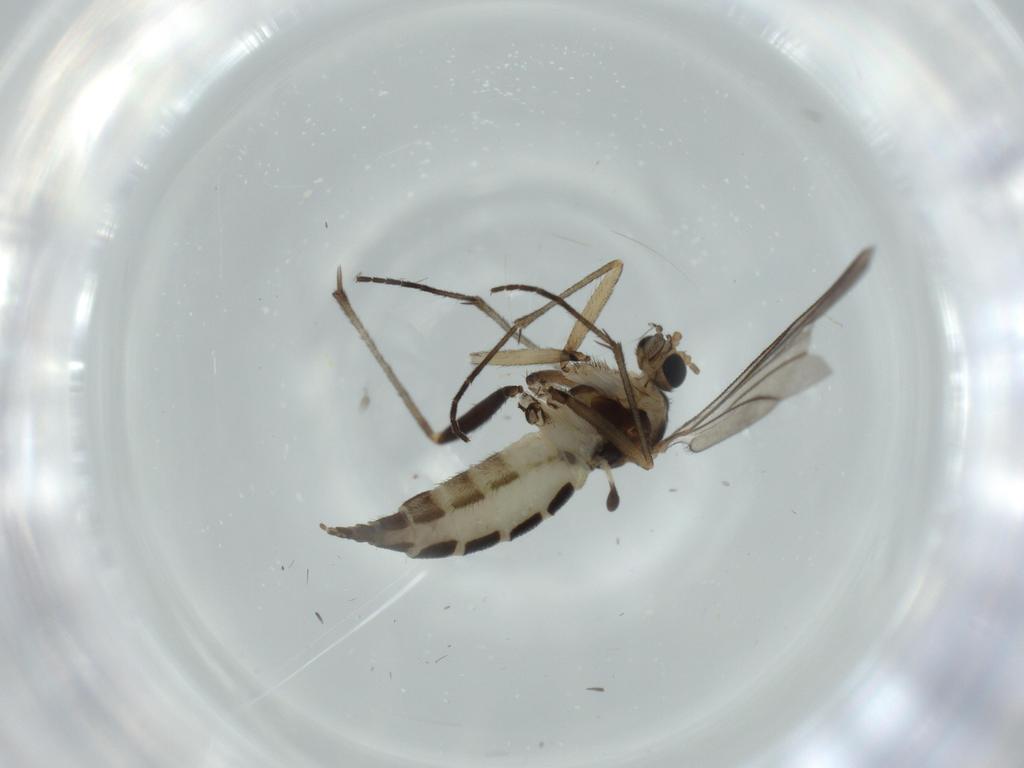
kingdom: Animalia
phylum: Arthropoda
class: Insecta
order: Diptera
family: Sciaridae
